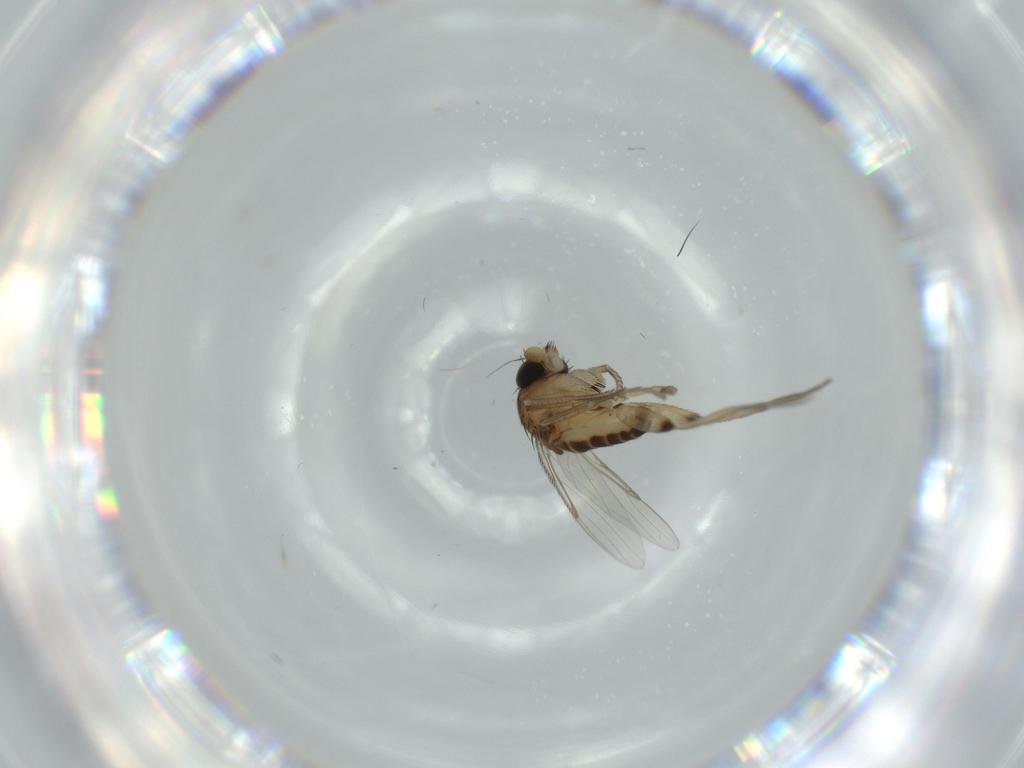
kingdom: Animalia
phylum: Arthropoda
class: Insecta
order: Diptera
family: Phoridae
